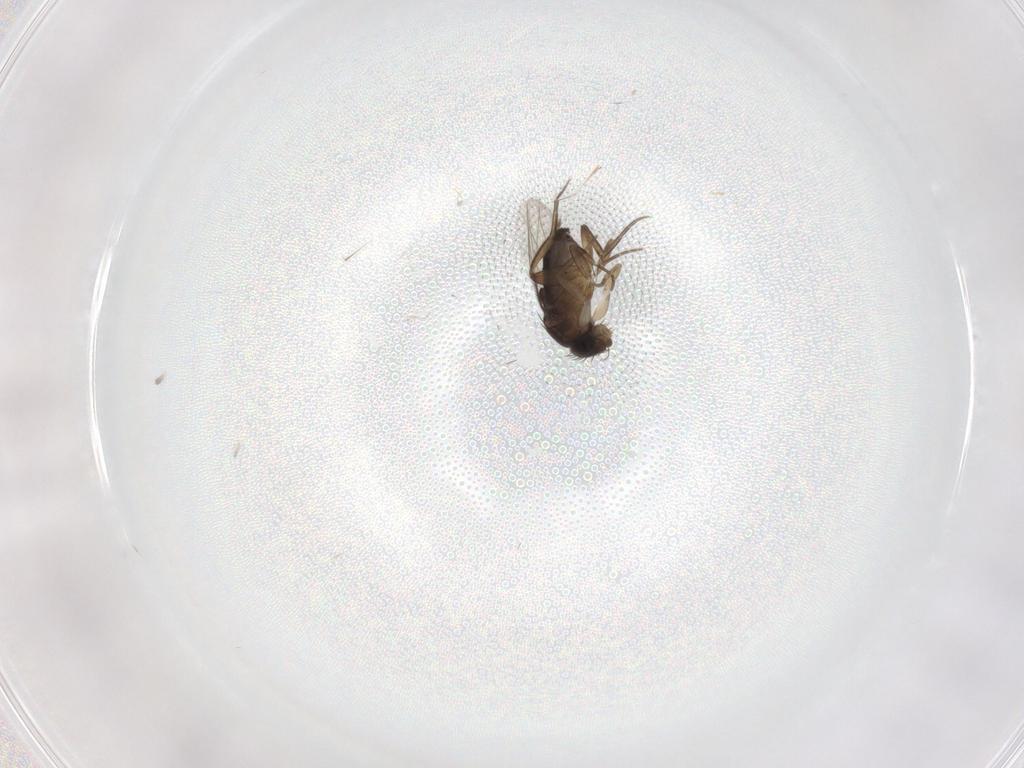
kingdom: Animalia
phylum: Arthropoda
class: Insecta
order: Diptera
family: Phoridae
